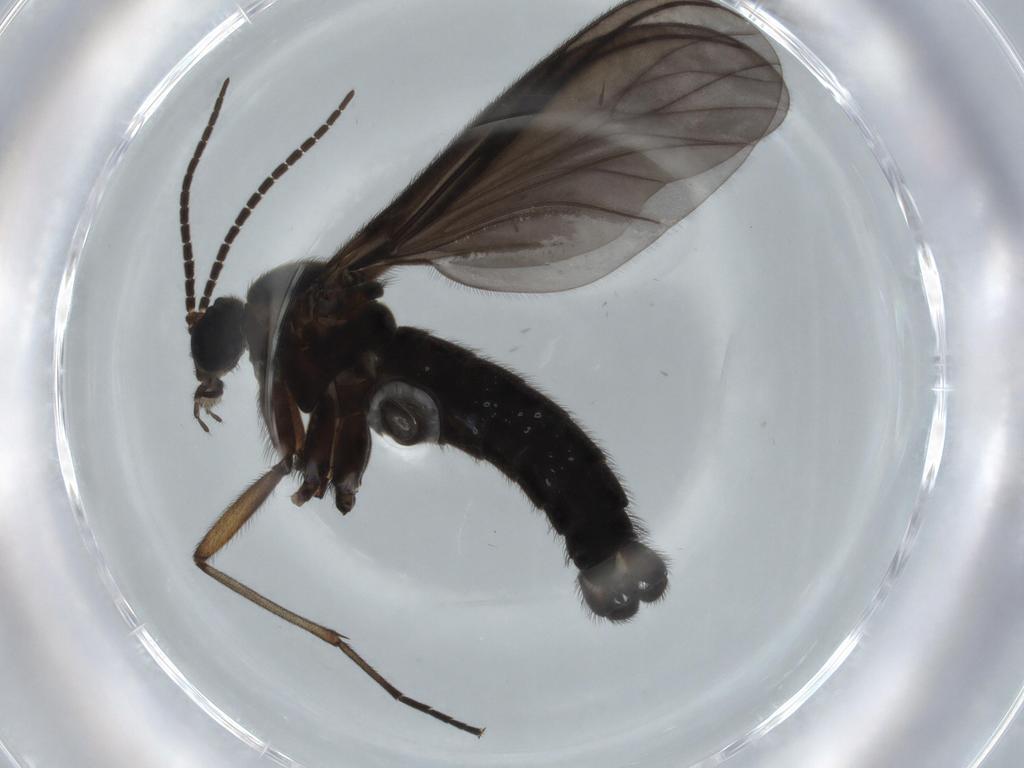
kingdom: Animalia
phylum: Arthropoda
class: Insecta
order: Diptera
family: Sciaridae
